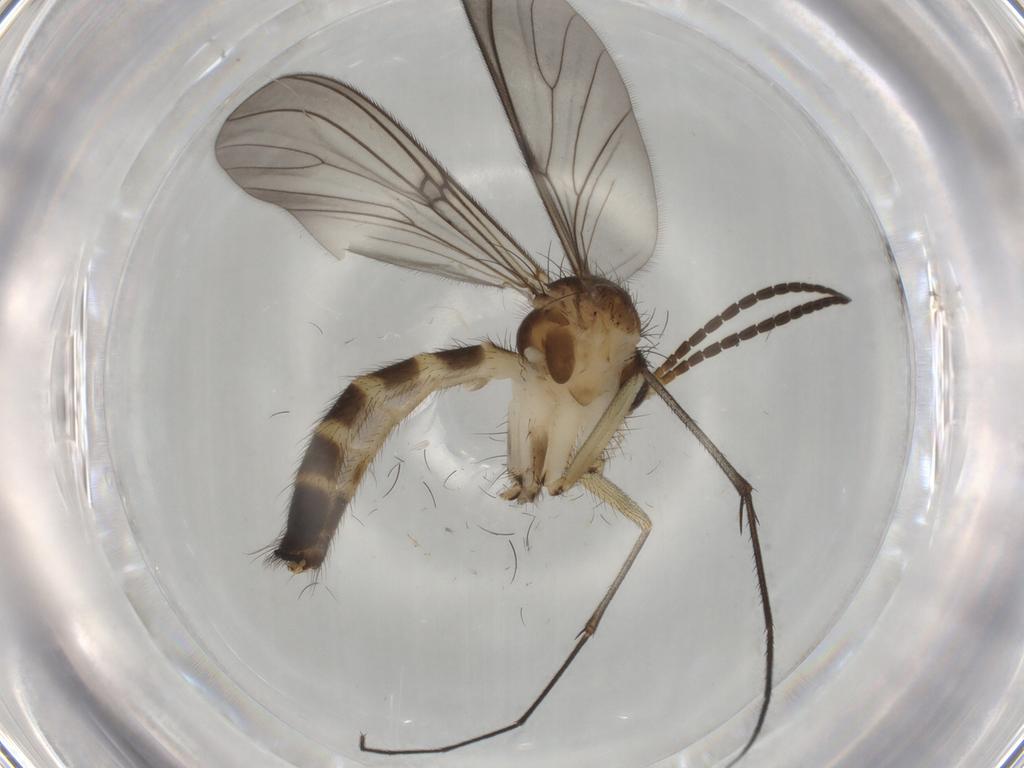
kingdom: Animalia
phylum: Arthropoda
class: Insecta
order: Diptera
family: Mycetophilidae
